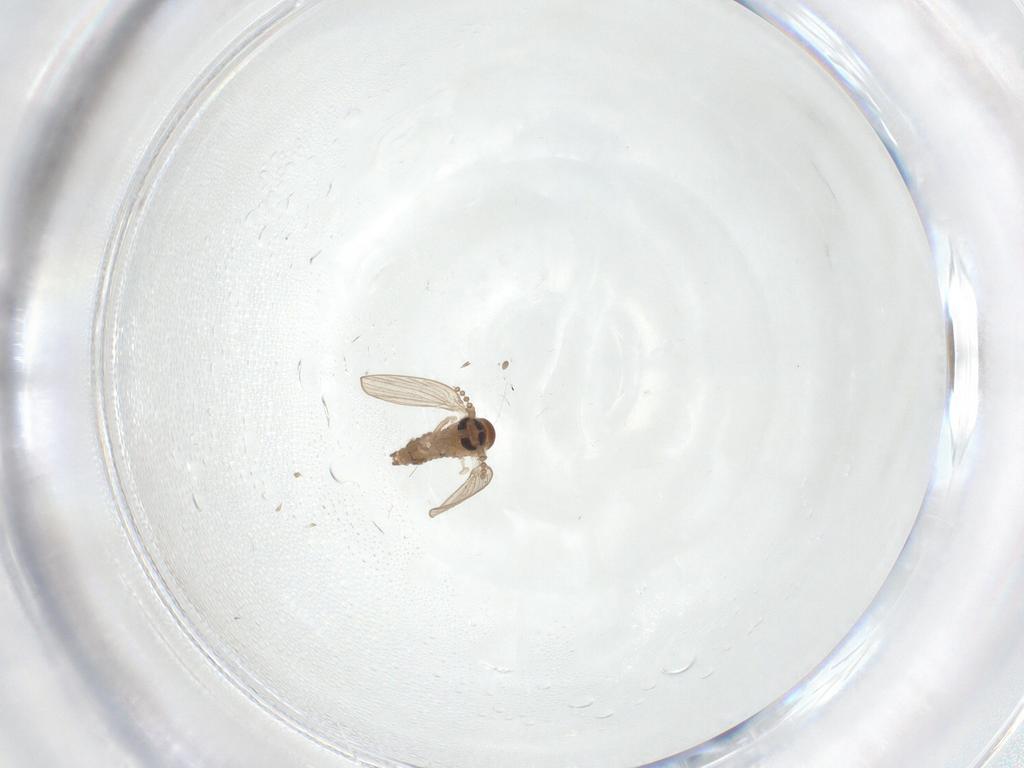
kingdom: Animalia
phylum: Arthropoda
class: Insecta
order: Diptera
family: Psychodidae
